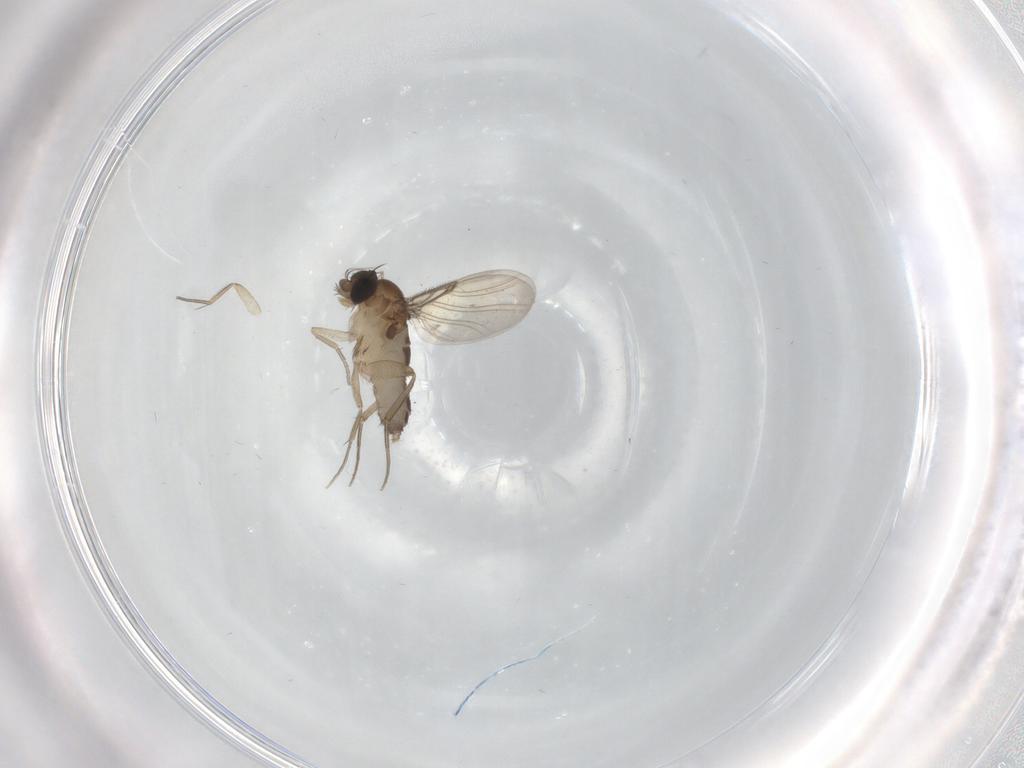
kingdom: Animalia
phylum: Arthropoda
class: Insecta
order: Diptera
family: Phoridae
